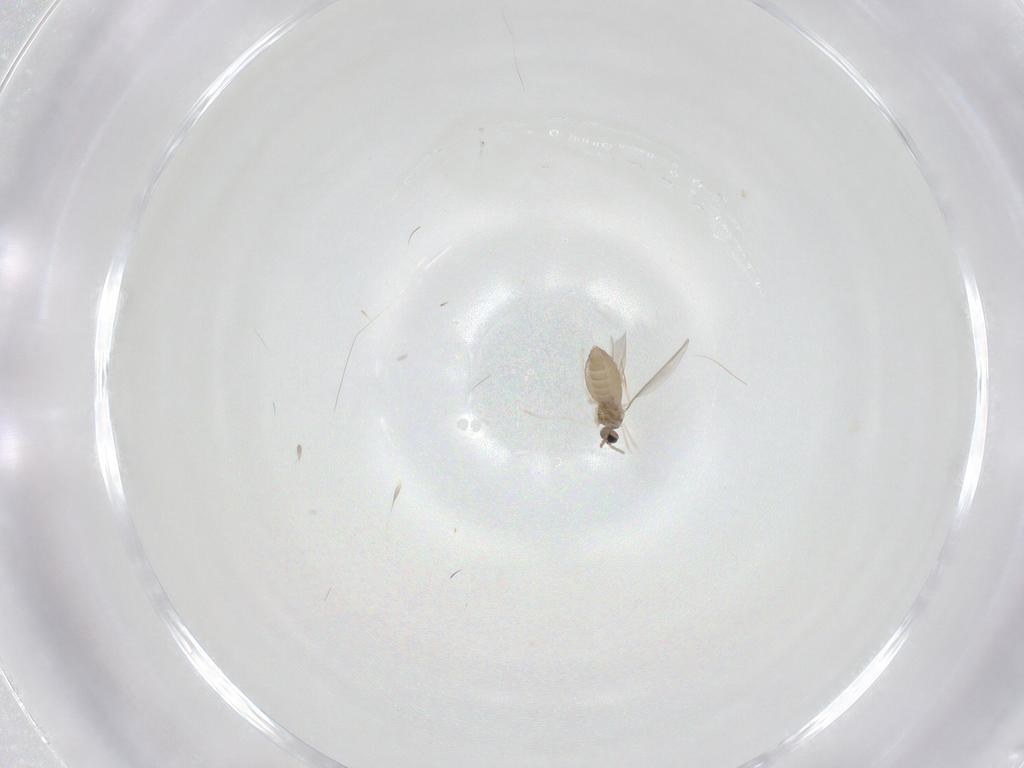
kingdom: Animalia
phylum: Arthropoda
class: Insecta
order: Diptera
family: Cecidomyiidae
